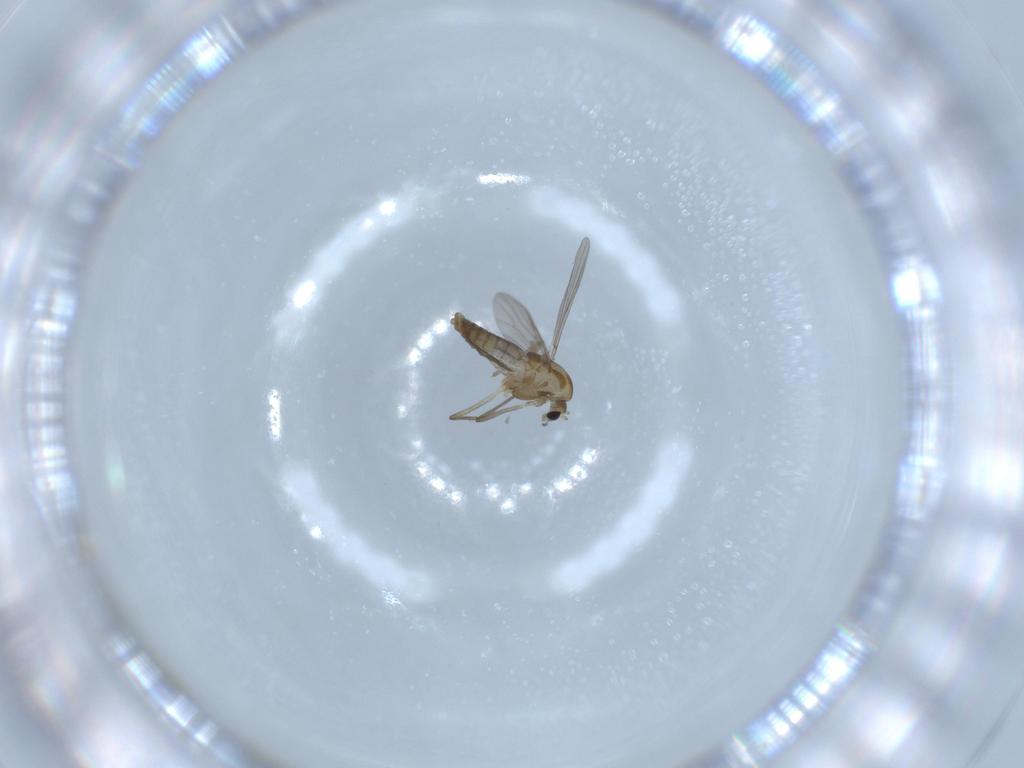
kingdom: Animalia
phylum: Arthropoda
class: Insecta
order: Diptera
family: Chironomidae
